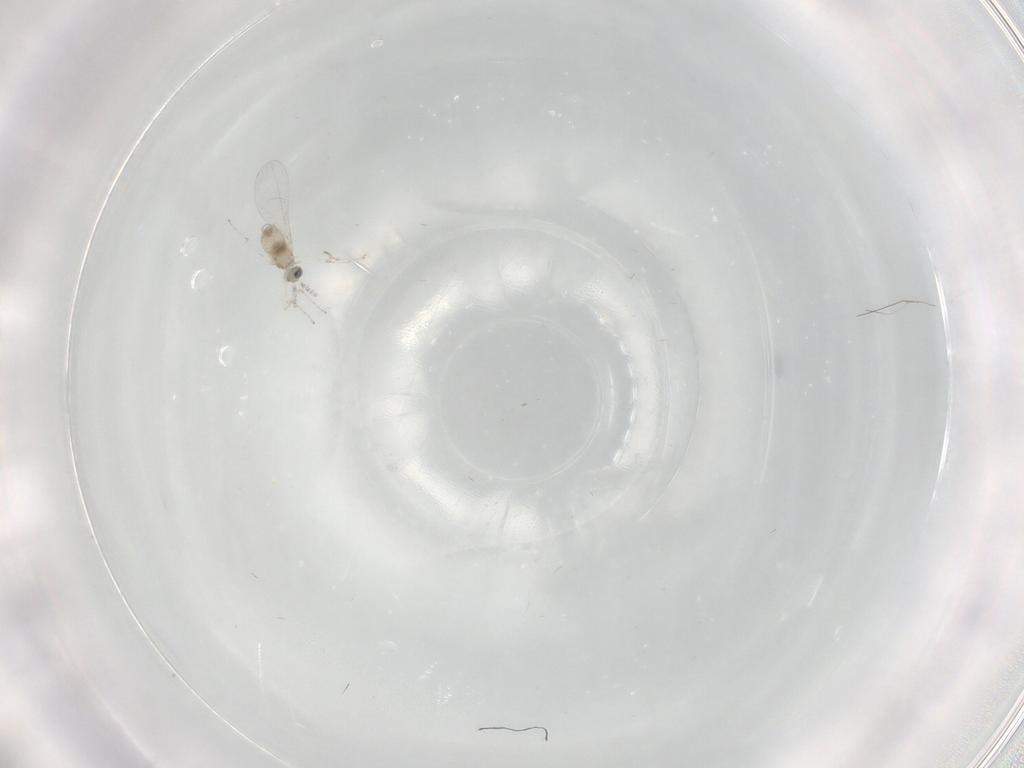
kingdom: Animalia
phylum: Arthropoda
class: Insecta
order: Diptera
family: Cecidomyiidae
